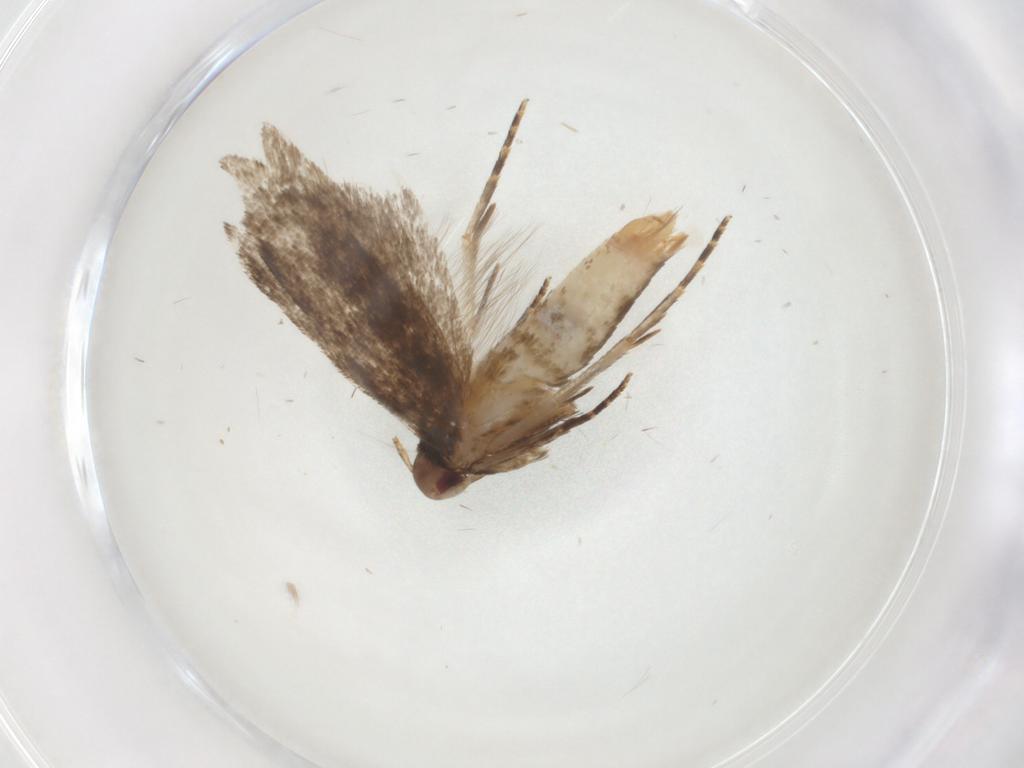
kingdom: Animalia
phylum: Arthropoda
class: Insecta
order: Lepidoptera
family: Gelechiidae
